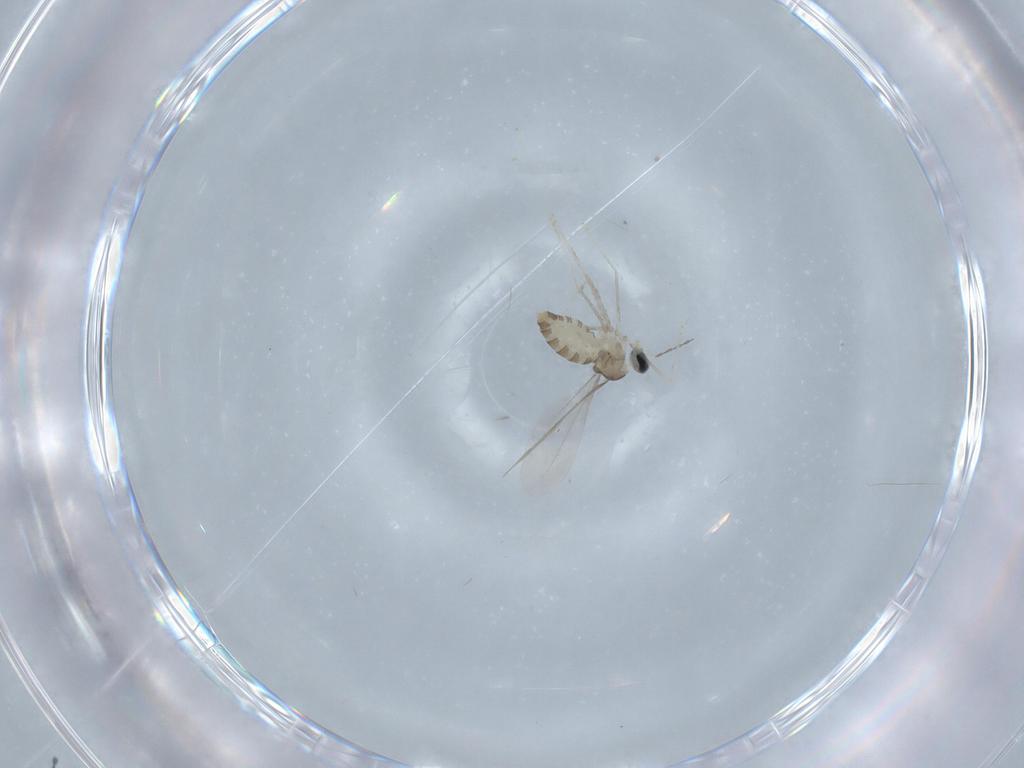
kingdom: Animalia
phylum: Arthropoda
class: Insecta
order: Diptera
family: Cecidomyiidae
